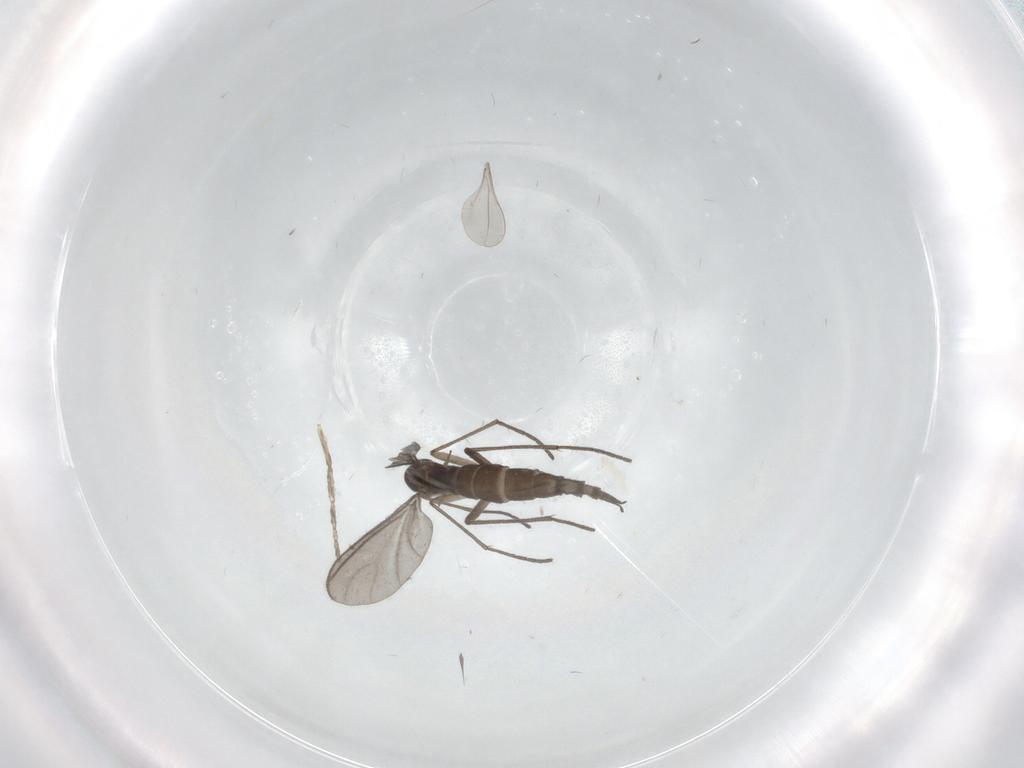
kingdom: Animalia
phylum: Arthropoda
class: Insecta
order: Diptera
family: Sciaridae
